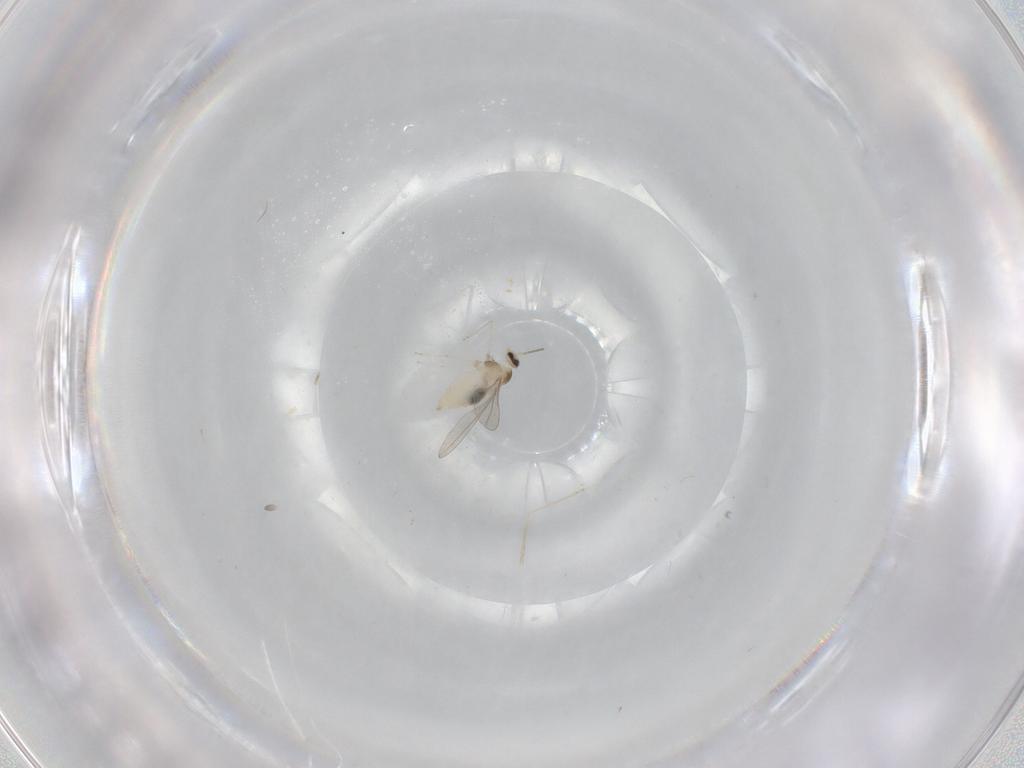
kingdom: Animalia
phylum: Arthropoda
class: Insecta
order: Diptera
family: Cecidomyiidae
